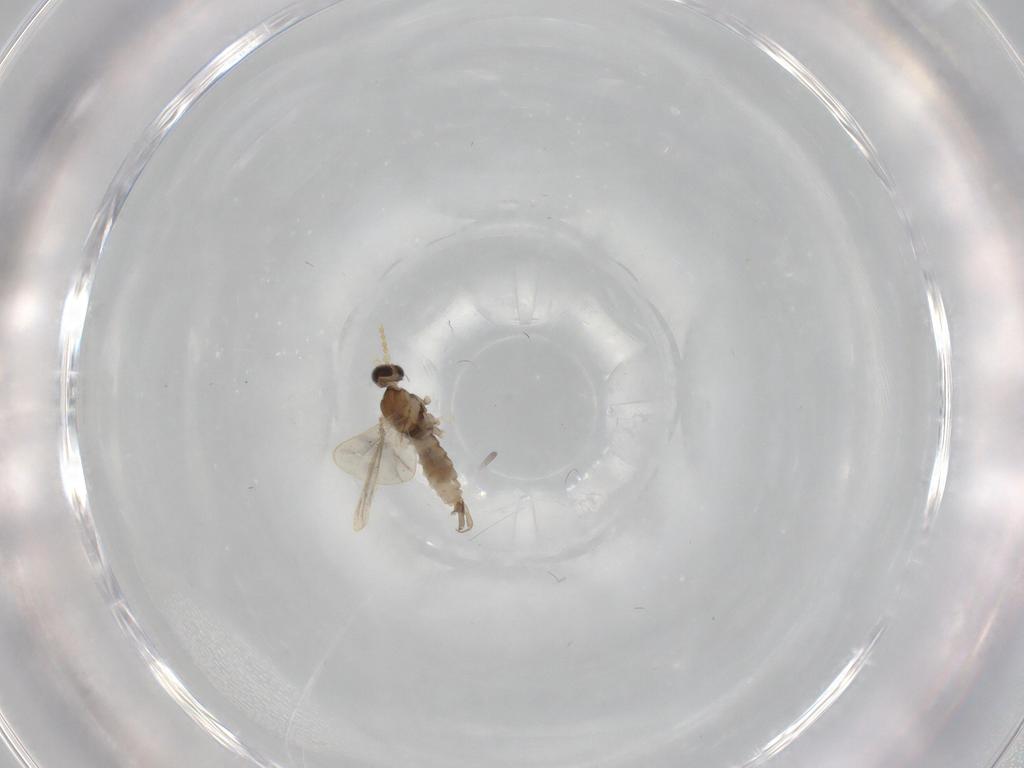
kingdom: Animalia
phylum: Arthropoda
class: Insecta
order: Diptera
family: Cecidomyiidae
